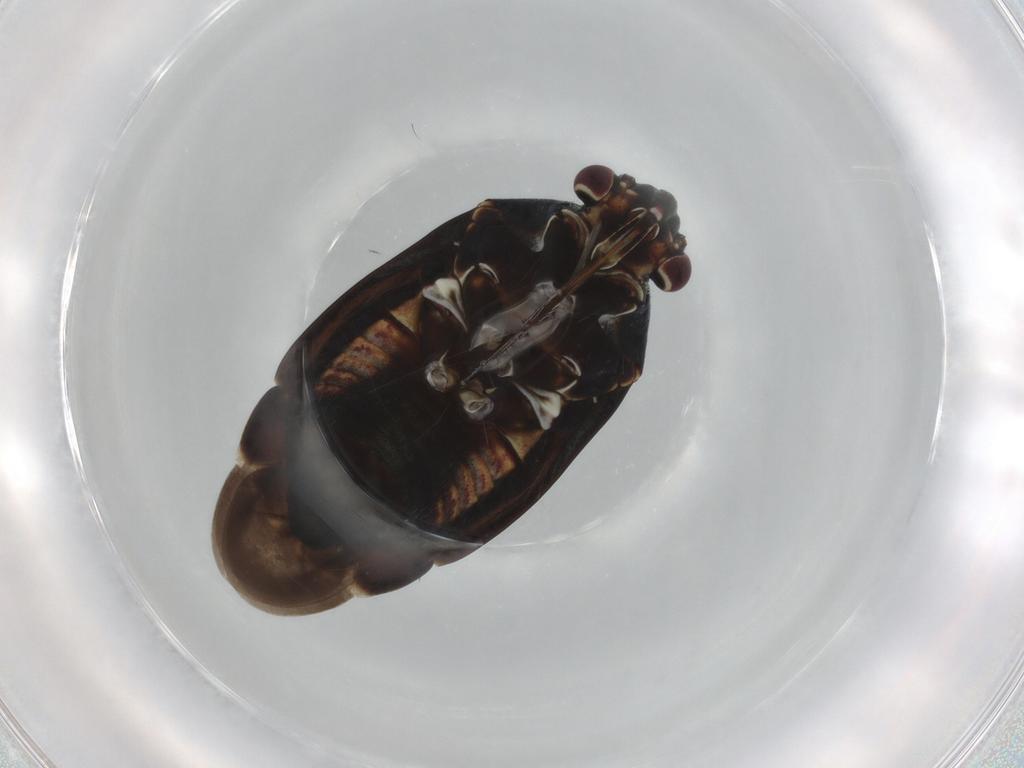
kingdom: Animalia
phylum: Arthropoda
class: Insecta
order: Hemiptera
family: Miridae
